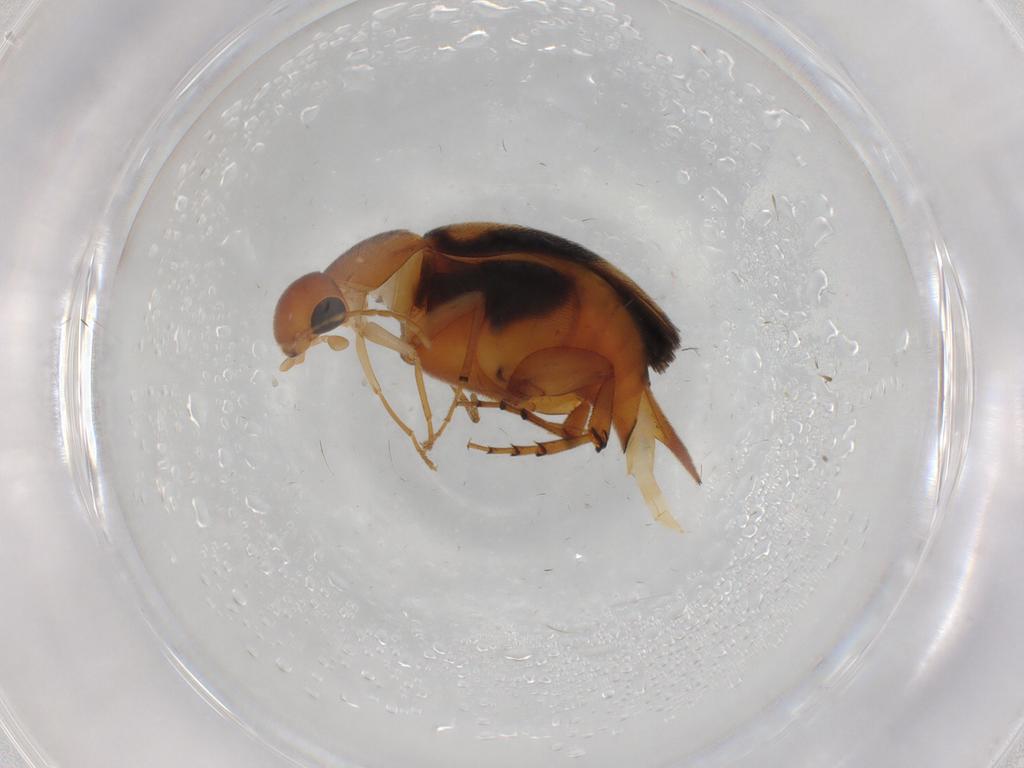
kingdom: Animalia
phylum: Arthropoda
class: Insecta
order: Coleoptera
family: Mordellidae
